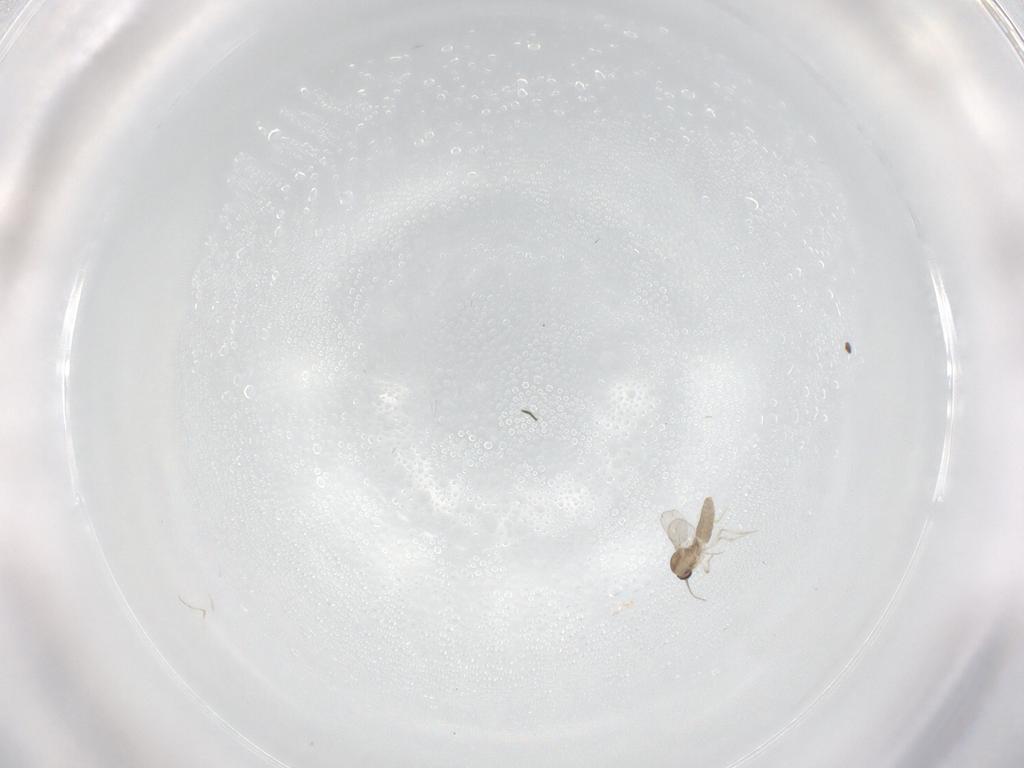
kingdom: Animalia
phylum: Arthropoda
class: Insecta
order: Diptera
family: Ceratopogonidae
